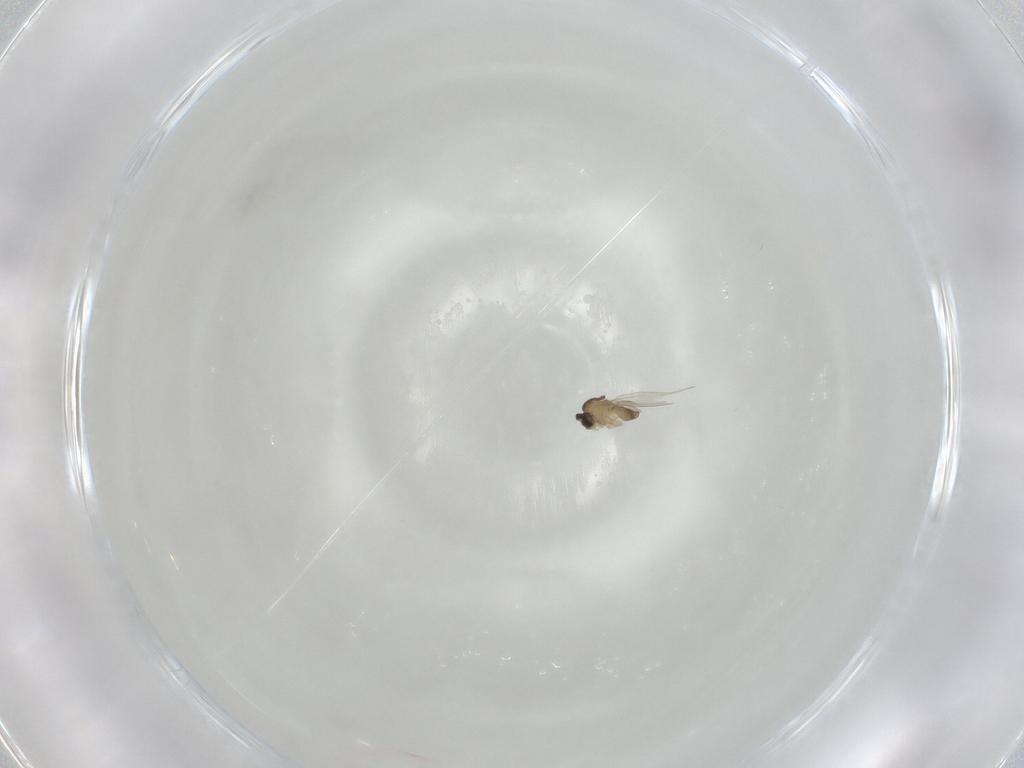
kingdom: Animalia
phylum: Arthropoda
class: Insecta
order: Diptera
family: Cecidomyiidae
